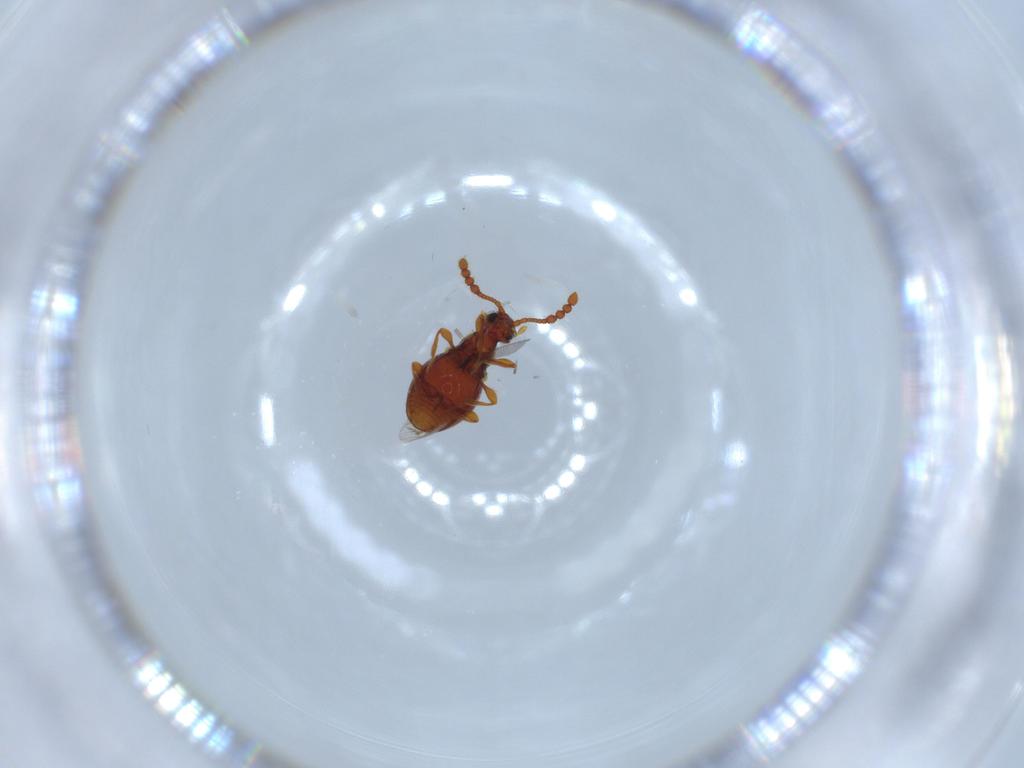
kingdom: Animalia
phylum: Arthropoda
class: Insecta
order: Coleoptera
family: Staphylinidae
